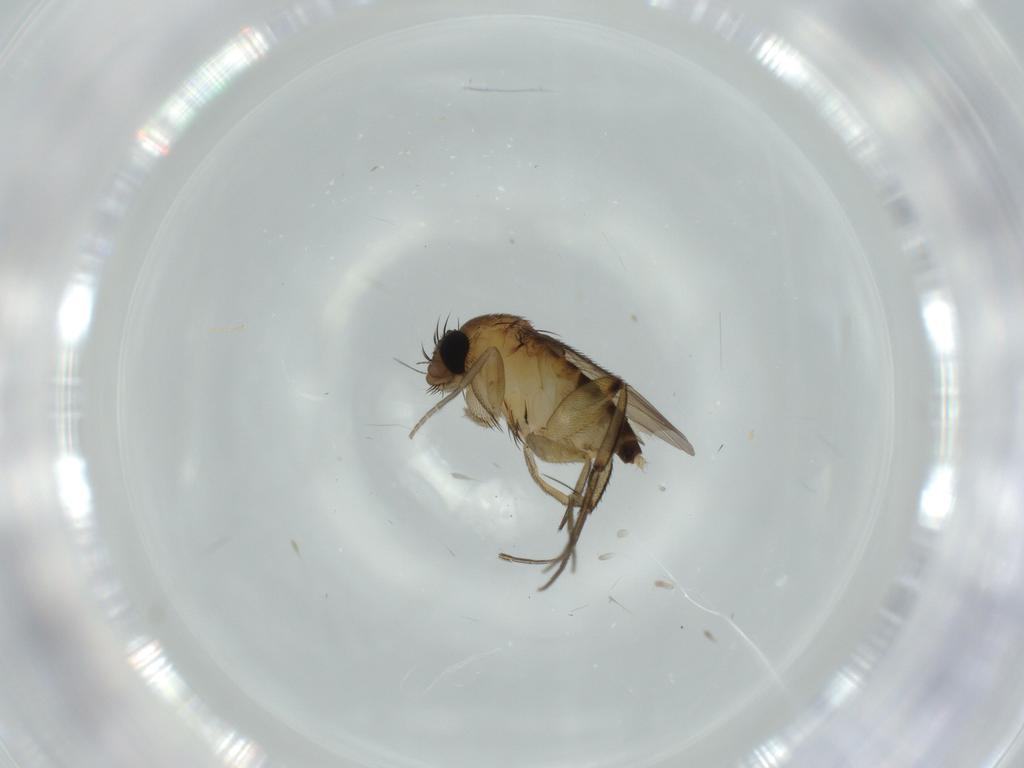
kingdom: Animalia
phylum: Arthropoda
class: Insecta
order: Diptera
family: Phoridae
